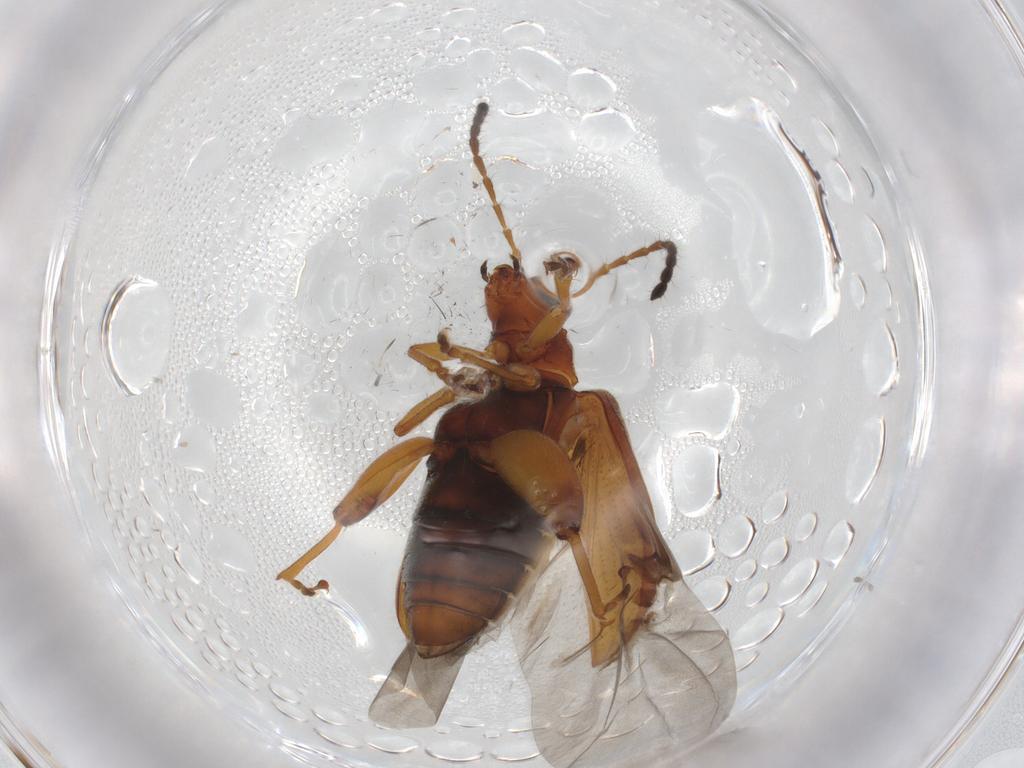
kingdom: Animalia
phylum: Arthropoda
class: Insecta
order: Coleoptera
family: Chrysomelidae
